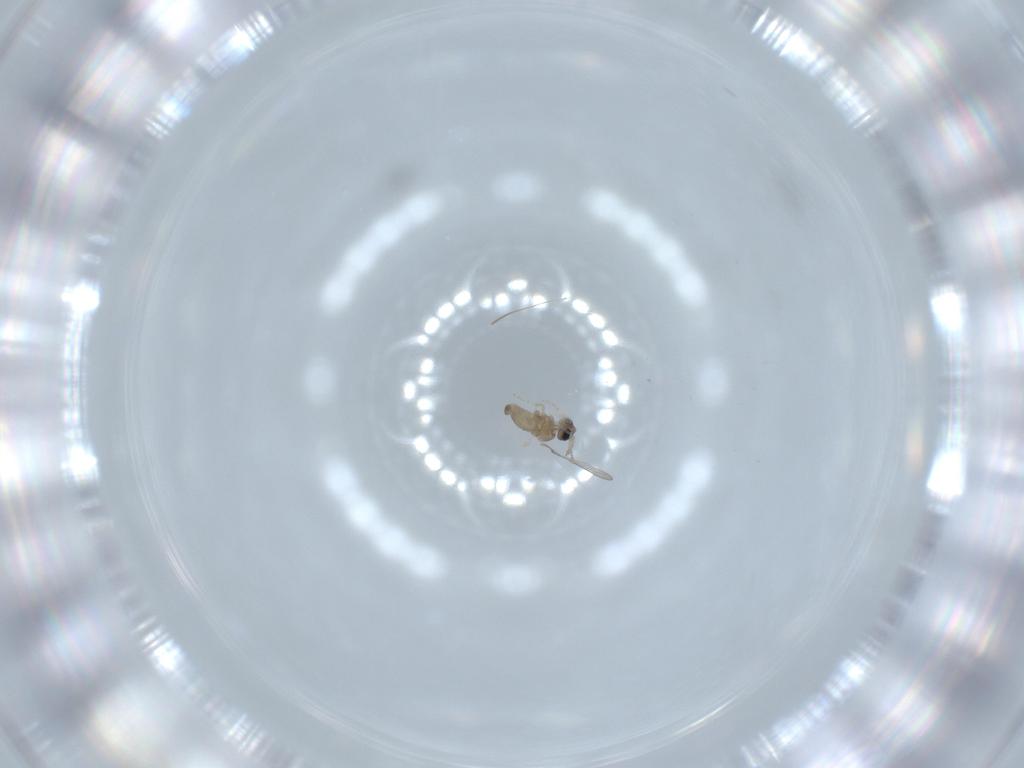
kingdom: Animalia
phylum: Arthropoda
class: Insecta
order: Diptera
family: Cecidomyiidae
